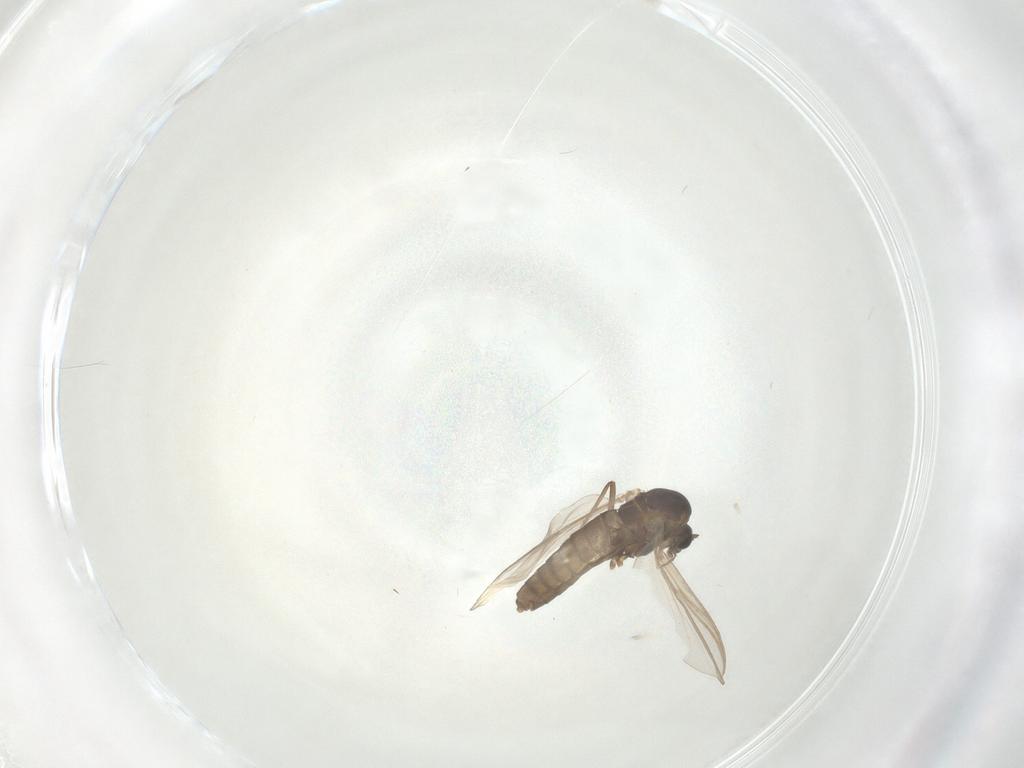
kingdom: Animalia
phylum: Arthropoda
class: Insecta
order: Diptera
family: Chironomidae
